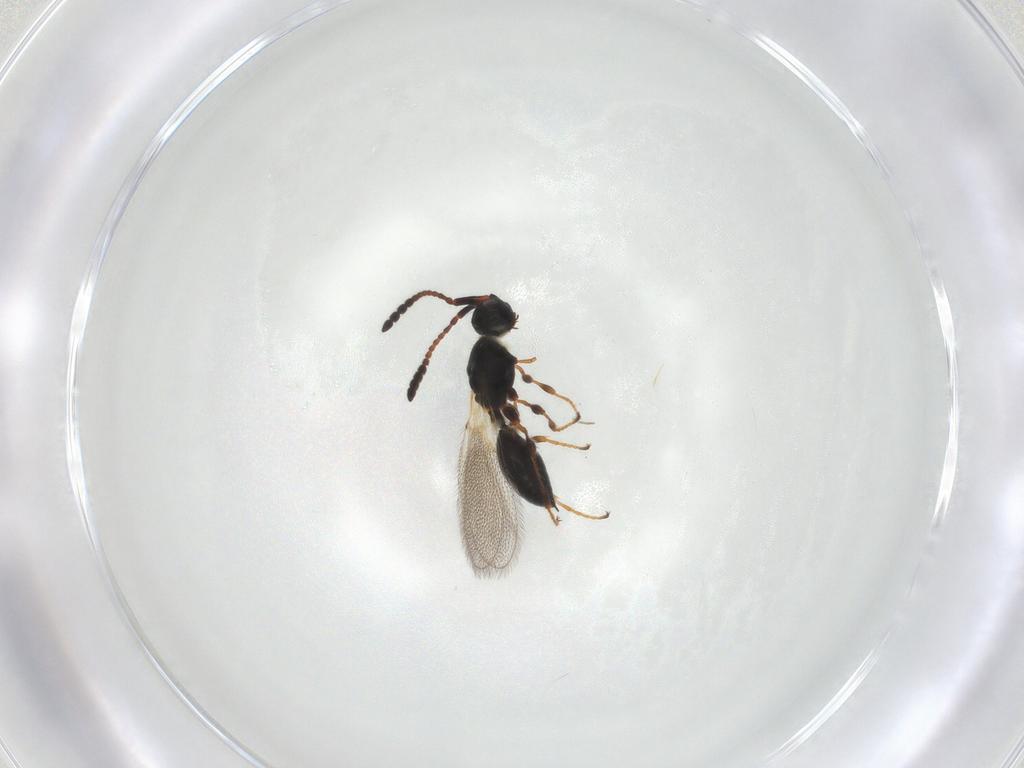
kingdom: Animalia
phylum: Arthropoda
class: Insecta
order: Hymenoptera
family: Diapriidae
